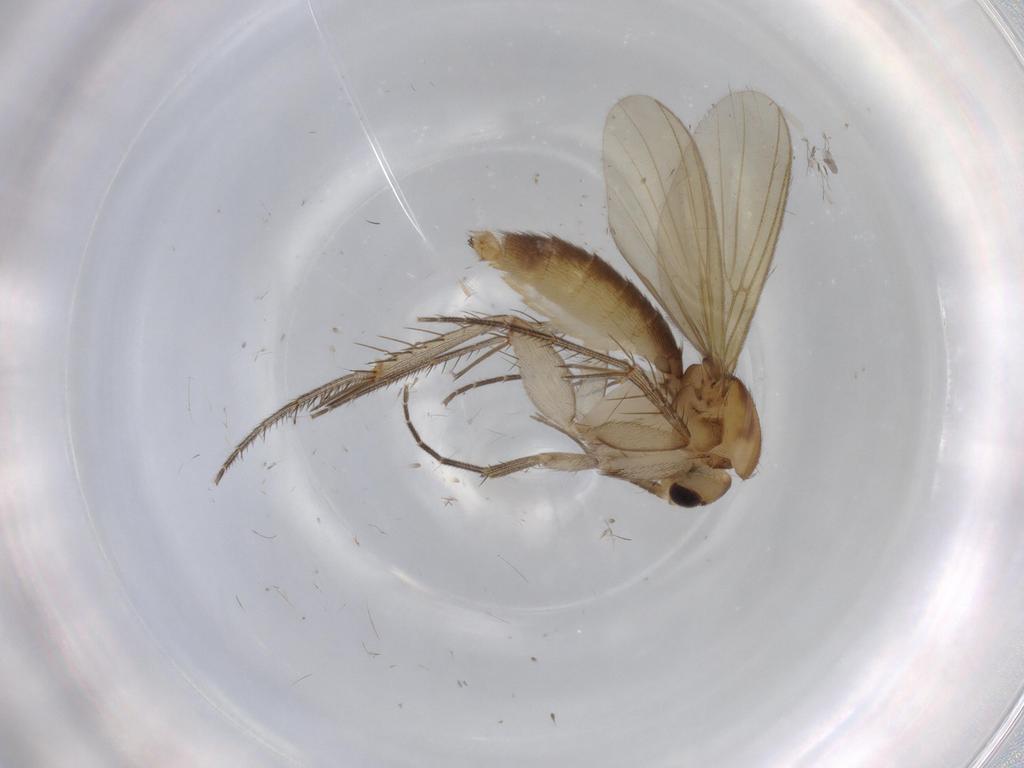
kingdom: Animalia
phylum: Arthropoda
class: Insecta
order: Diptera
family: Mycetophilidae
